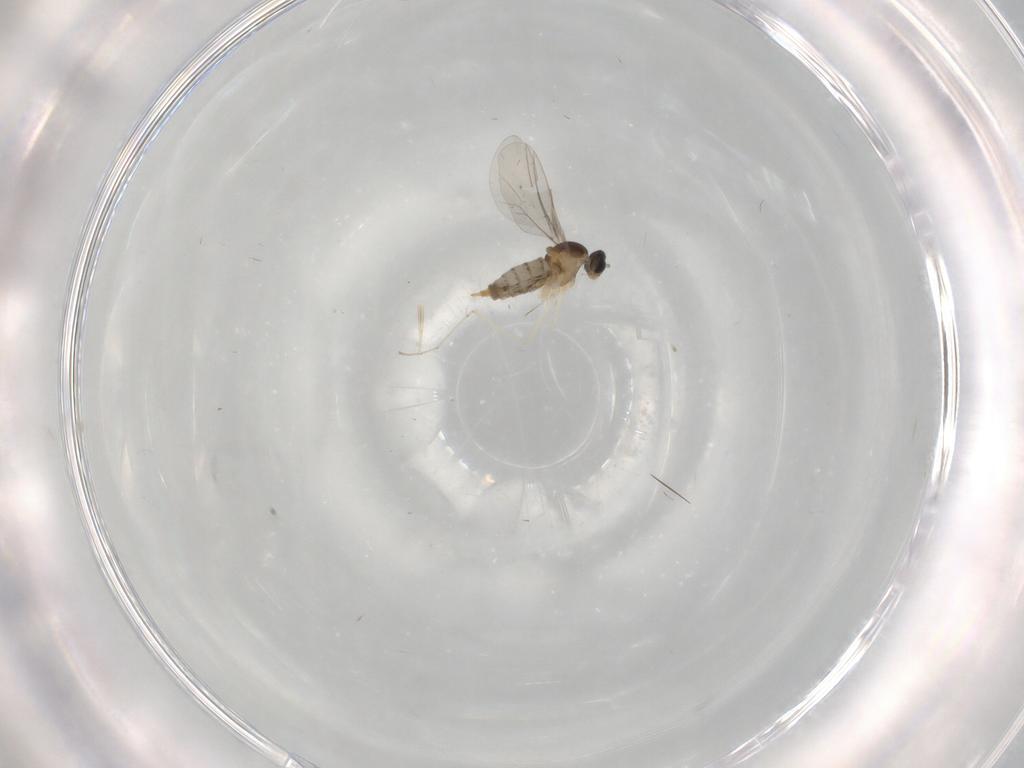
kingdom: Animalia
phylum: Arthropoda
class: Insecta
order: Diptera
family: Cecidomyiidae
